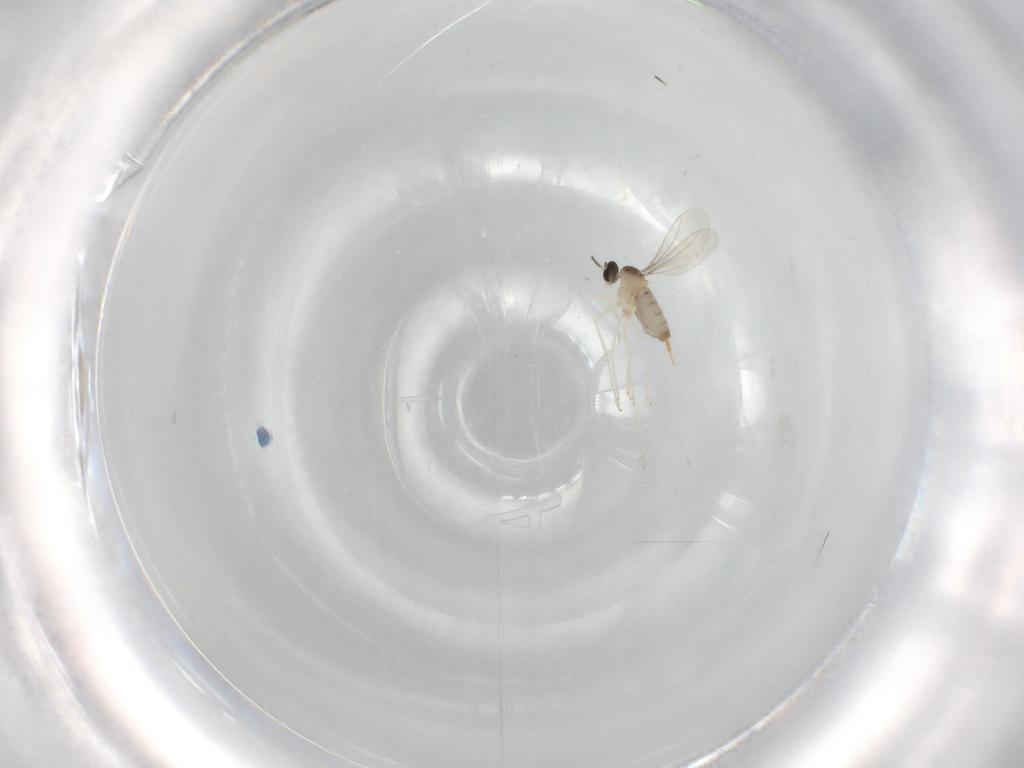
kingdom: Animalia
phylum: Arthropoda
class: Insecta
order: Diptera
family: Cecidomyiidae
